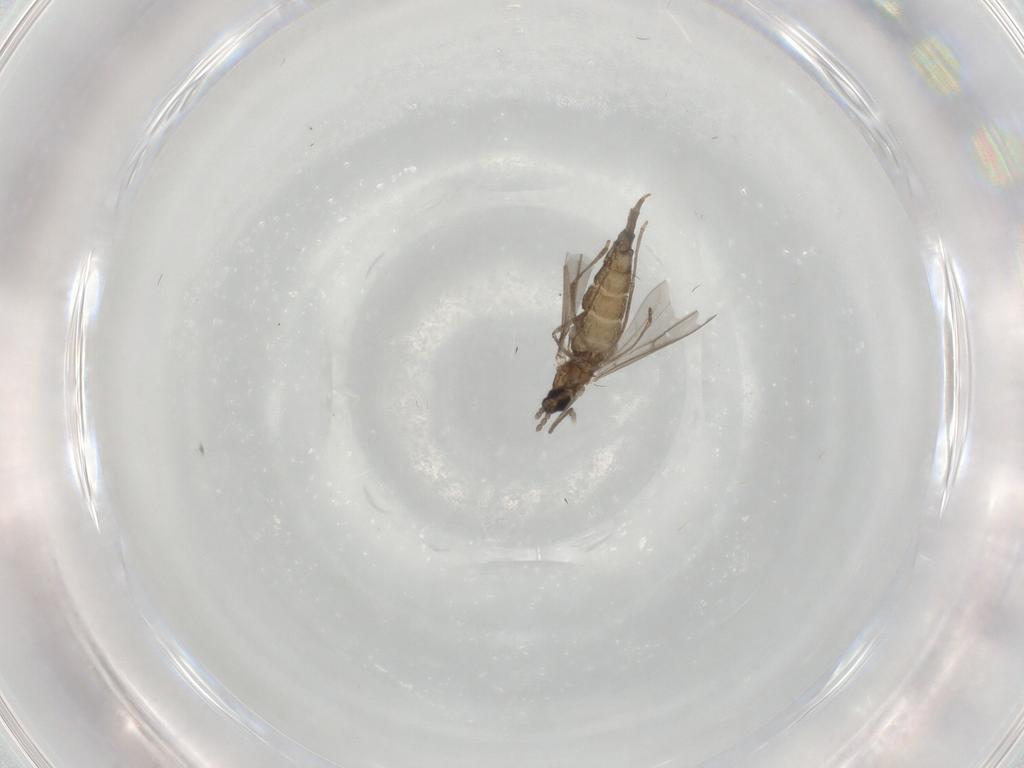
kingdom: Animalia
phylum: Arthropoda
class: Insecta
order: Diptera
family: Cecidomyiidae
